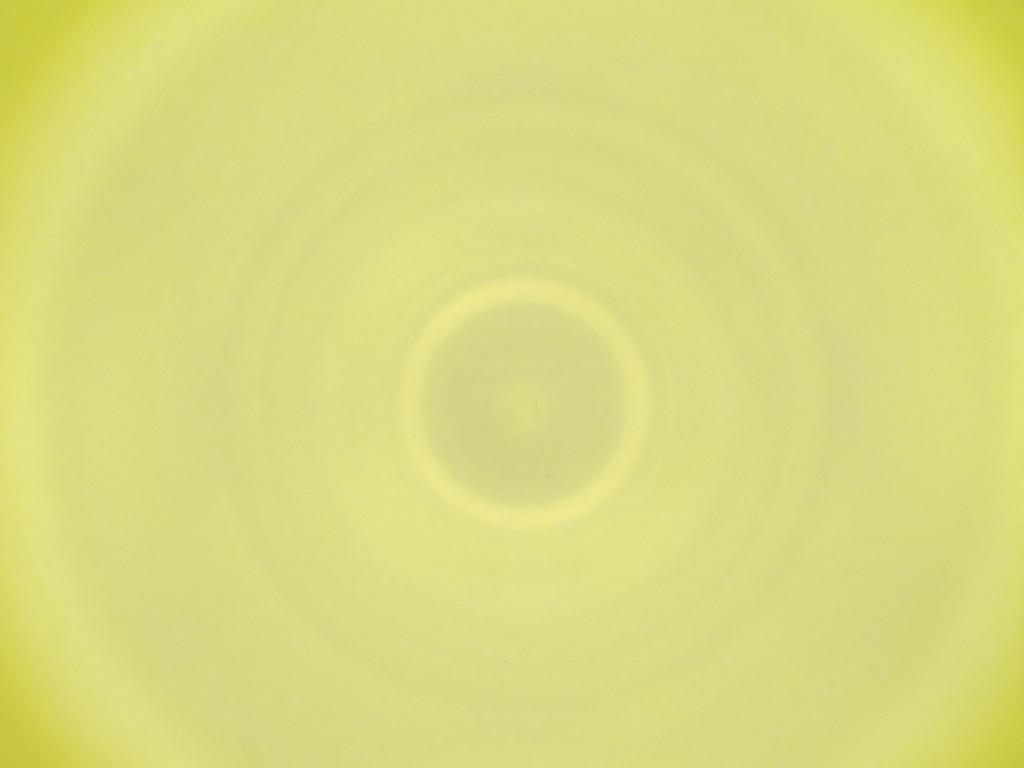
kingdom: Animalia
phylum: Arthropoda
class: Insecta
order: Diptera
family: Cecidomyiidae
